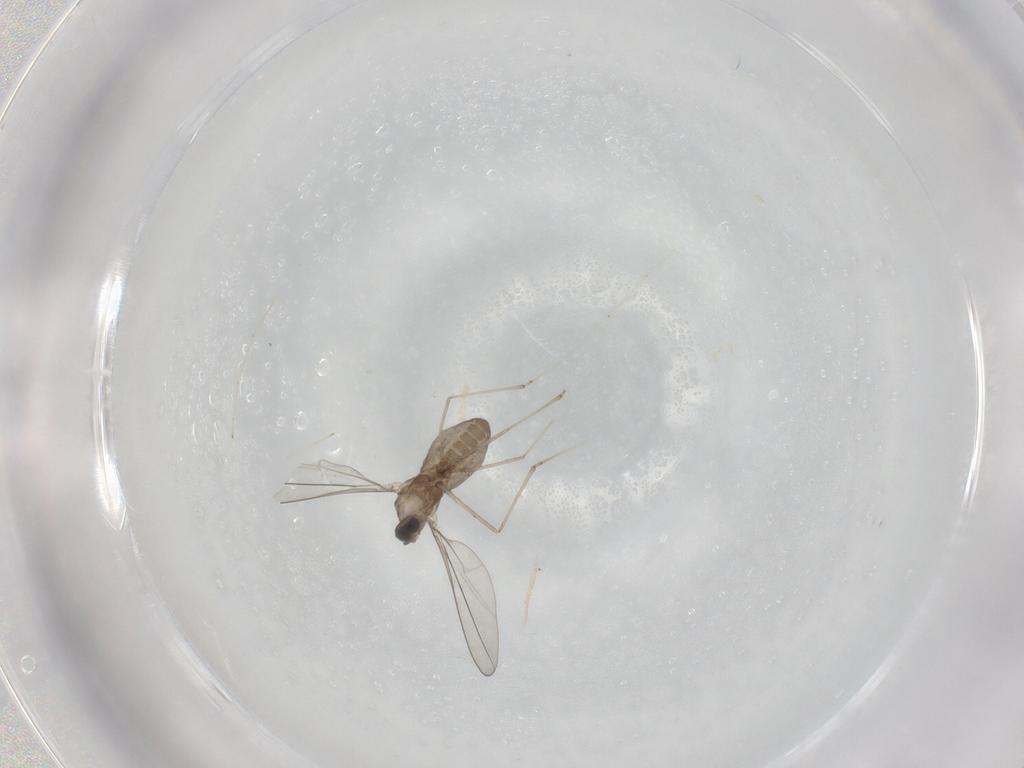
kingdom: Animalia
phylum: Arthropoda
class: Insecta
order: Diptera
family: Cecidomyiidae
